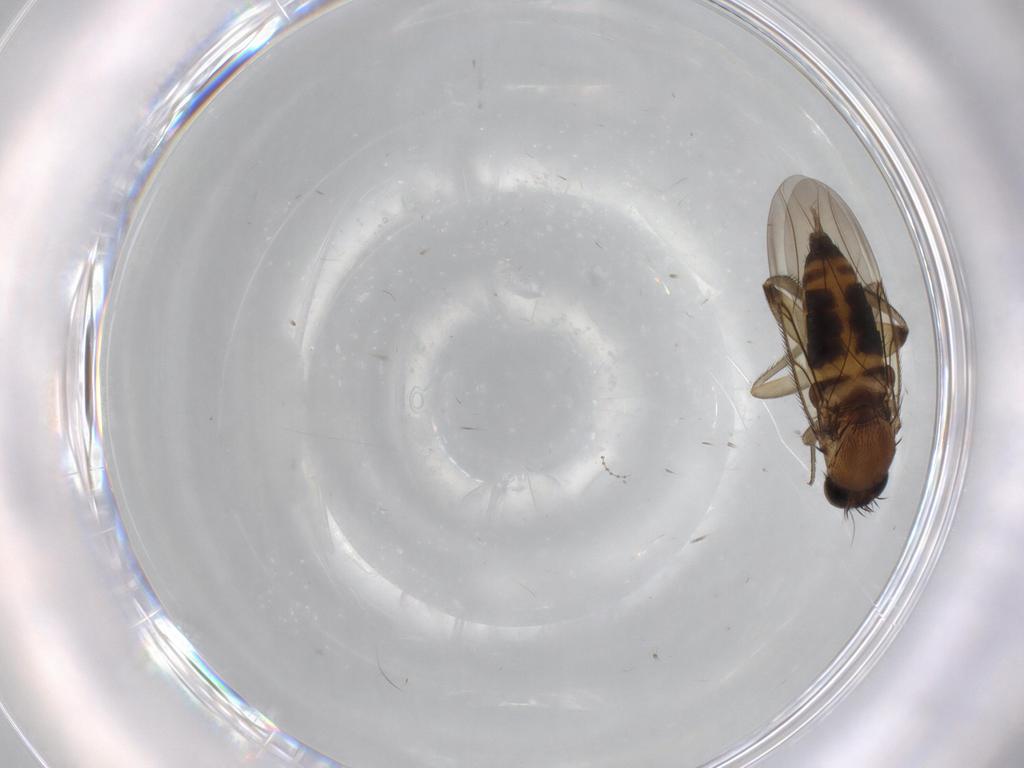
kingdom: Animalia
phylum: Arthropoda
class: Insecta
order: Diptera
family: Phoridae
